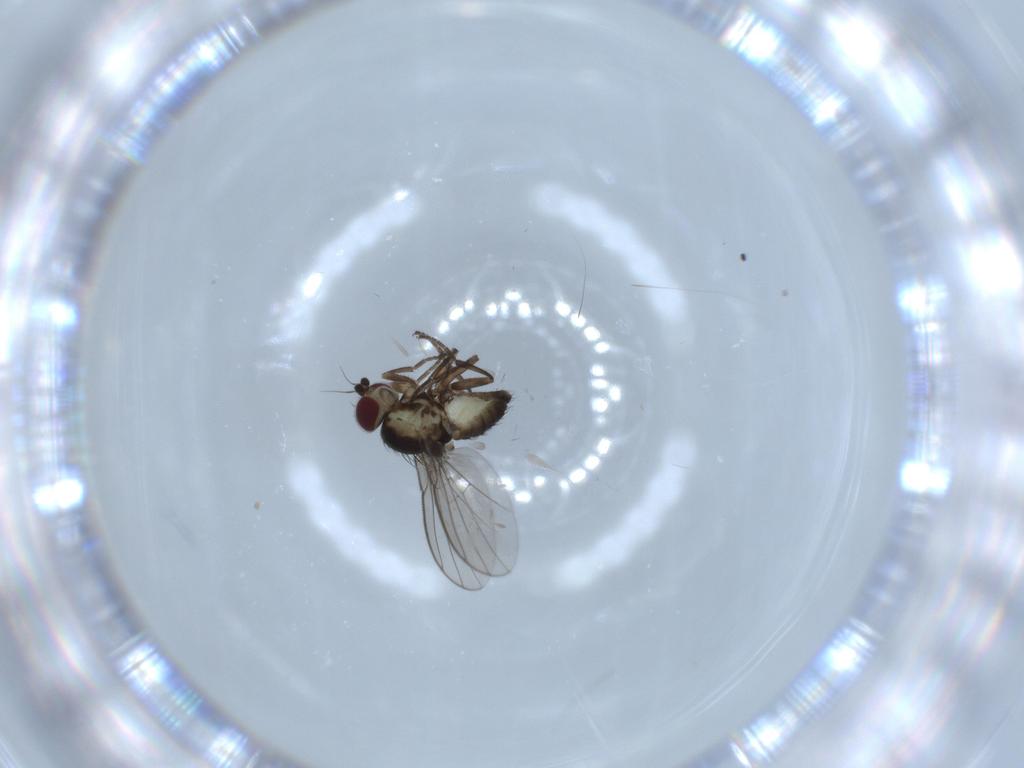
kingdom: Animalia
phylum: Arthropoda
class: Insecta
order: Diptera
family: Agromyzidae
